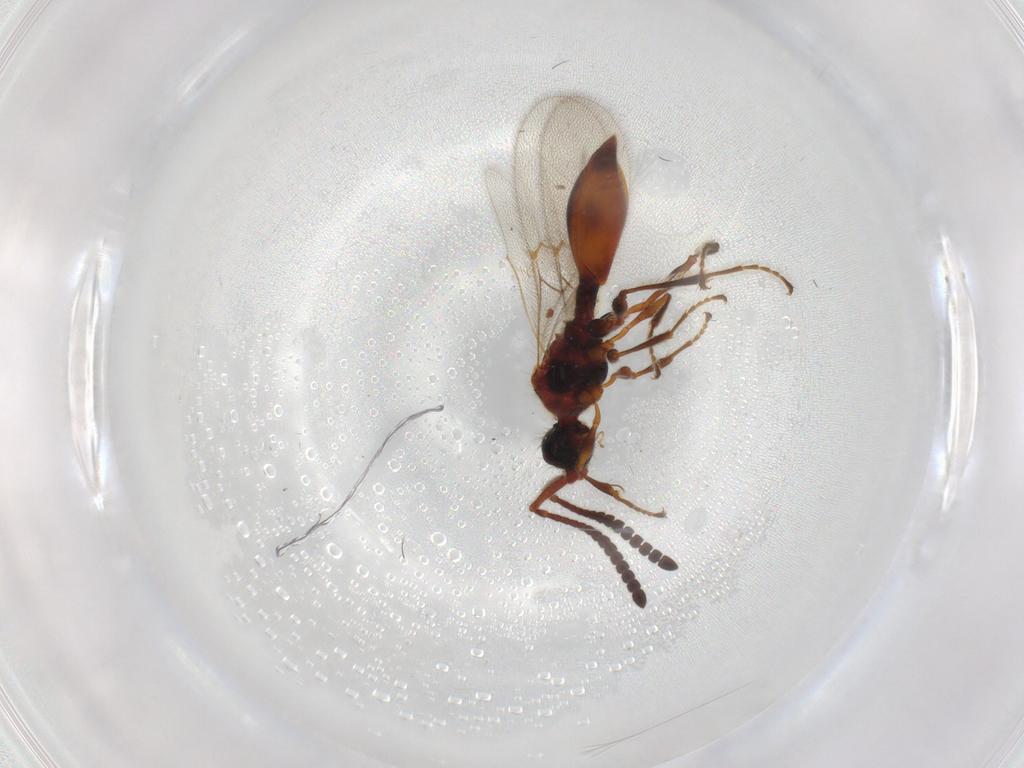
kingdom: Animalia
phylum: Arthropoda
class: Insecta
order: Hymenoptera
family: Diapriidae
